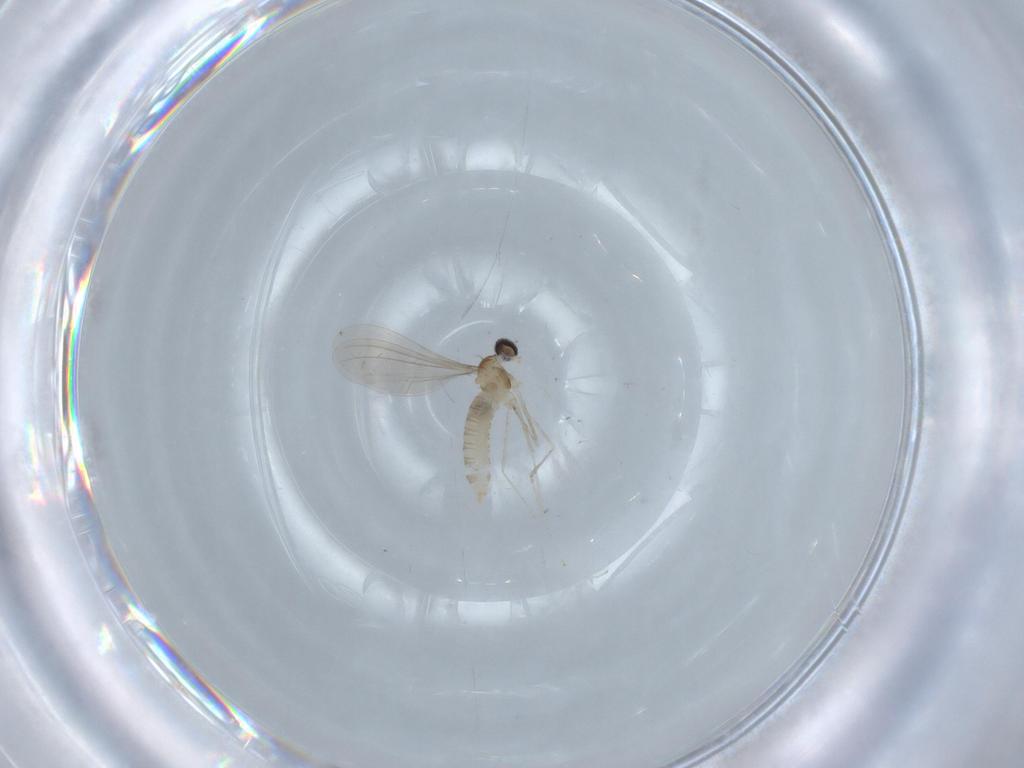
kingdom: Animalia
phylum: Arthropoda
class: Insecta
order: Diptera
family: Cecidomyiidae
